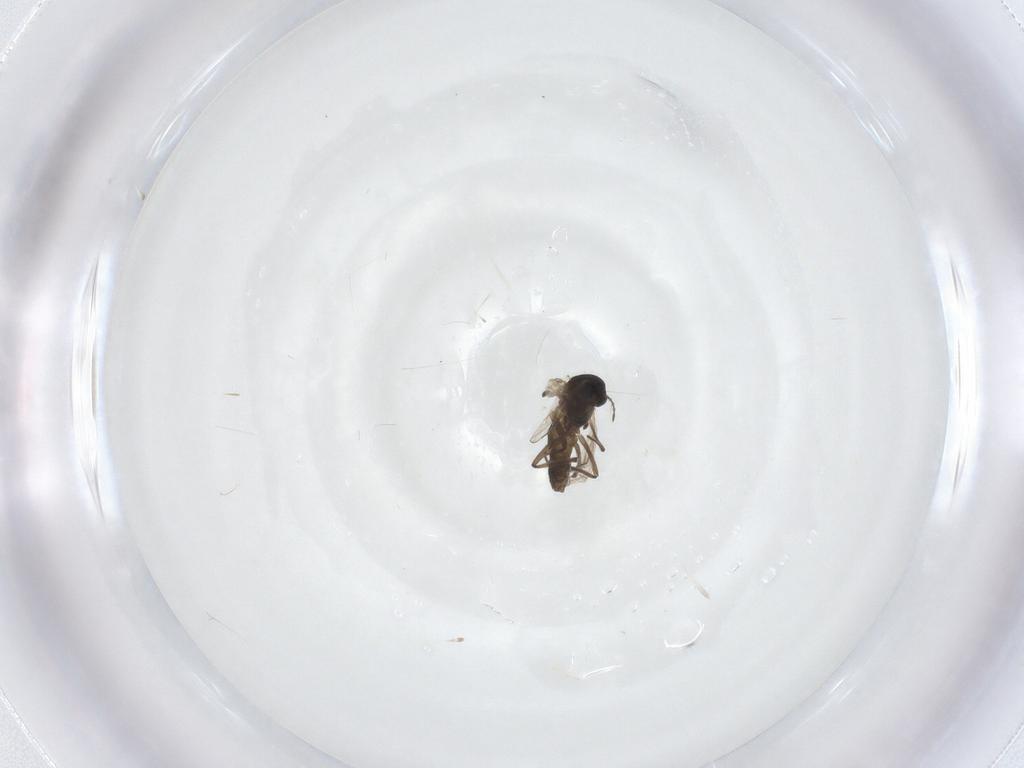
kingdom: Animalia
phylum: Arthropoda
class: Insecta
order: Diptera
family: Chironomidae
